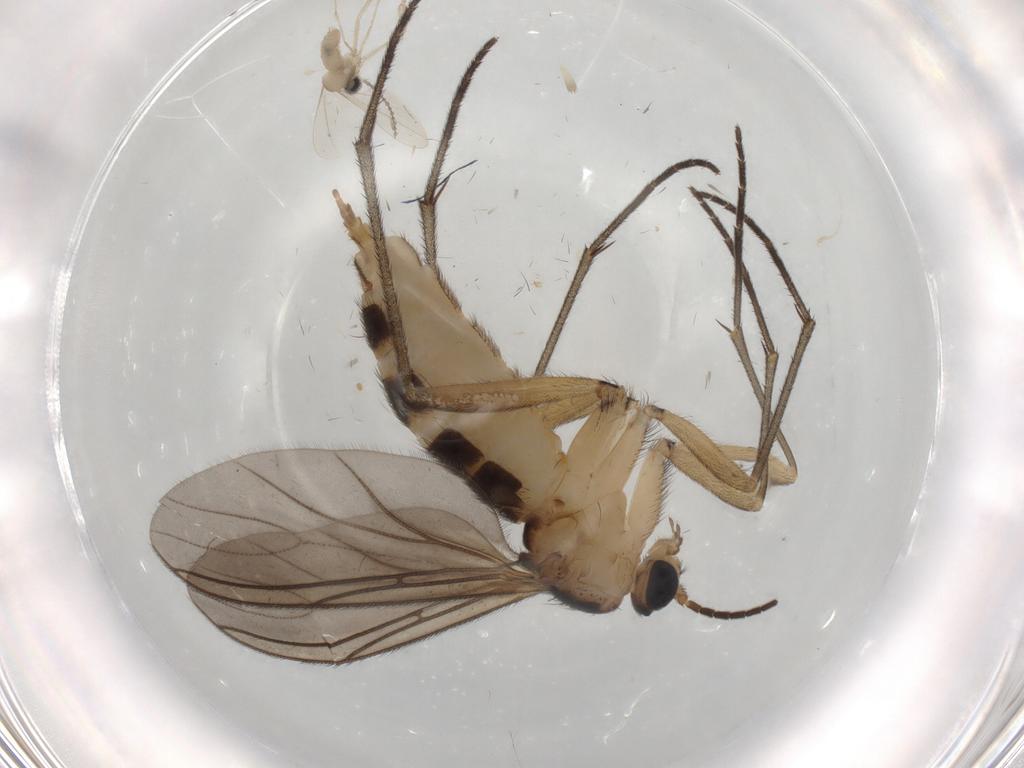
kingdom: Animalia
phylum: Arthropoda
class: Insecta
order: Diptera
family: Sciaridae
